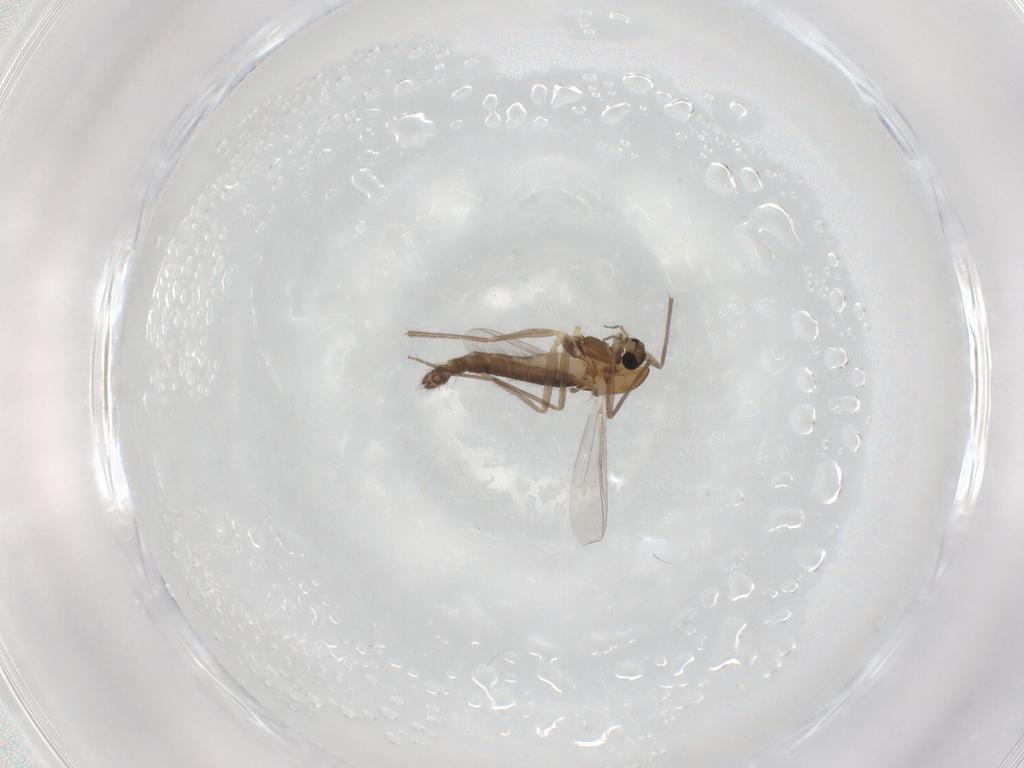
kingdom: Animalia
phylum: Arthropoda
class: Insecta
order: Diptera
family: Chironomidae
